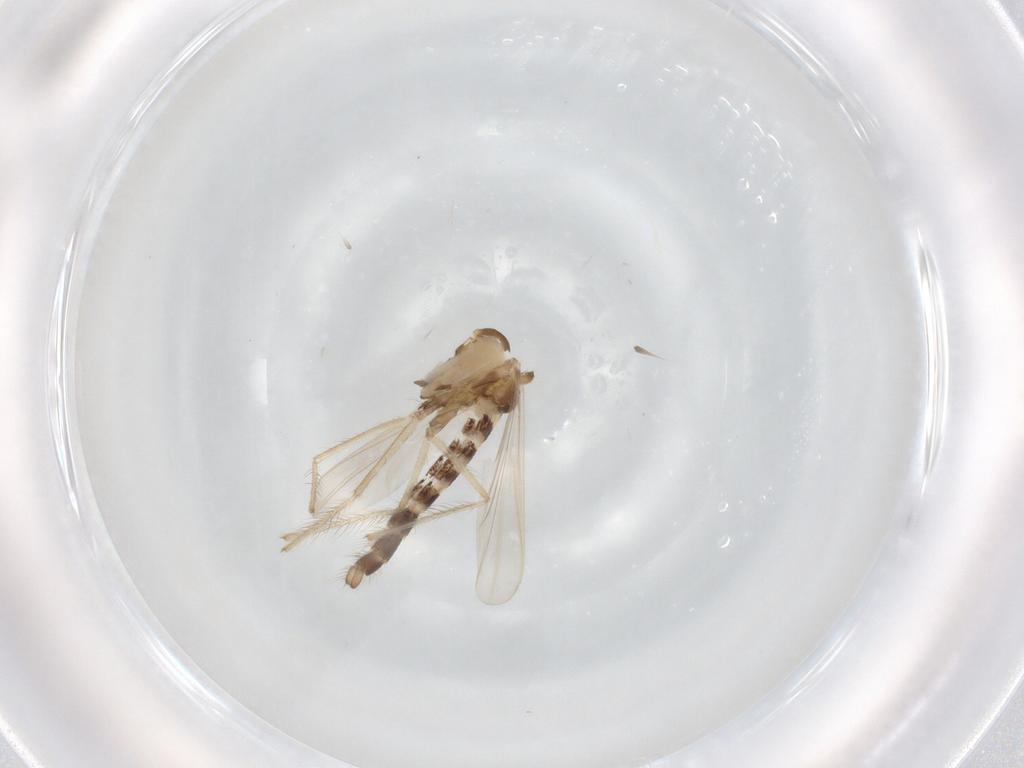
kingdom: Animalia
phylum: Arthropoda
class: Insecta
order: Diptera
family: Chironomidae
